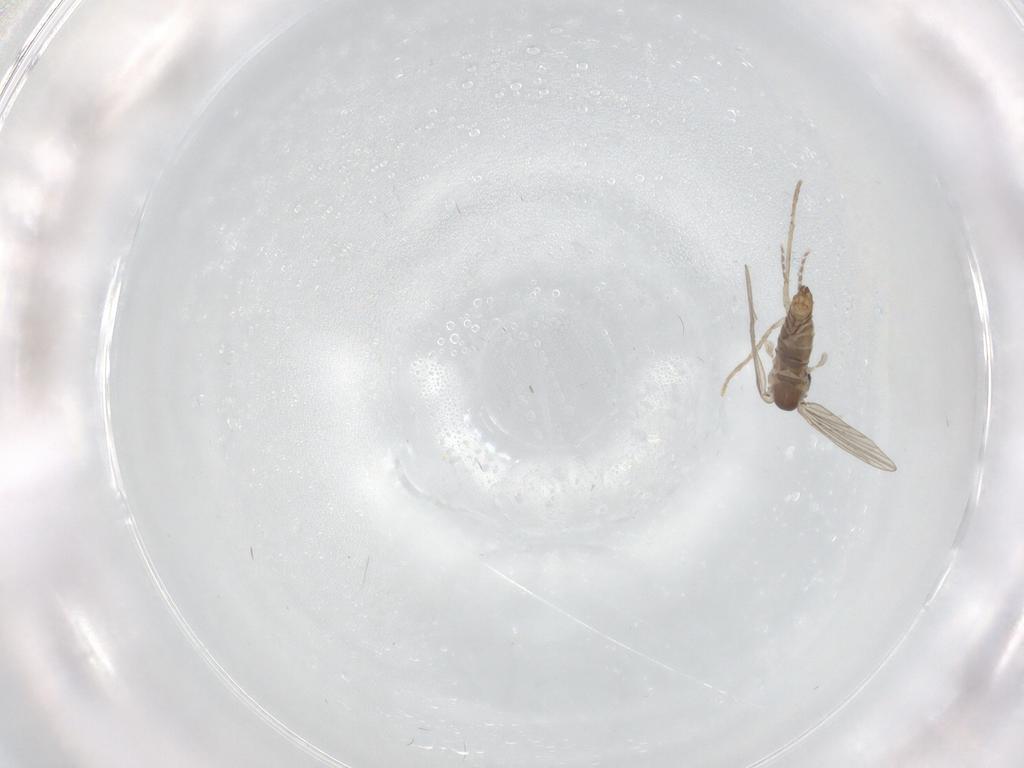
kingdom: Animalia
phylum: Arthropoda
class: Insecta
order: Diptera
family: Psychodidae
